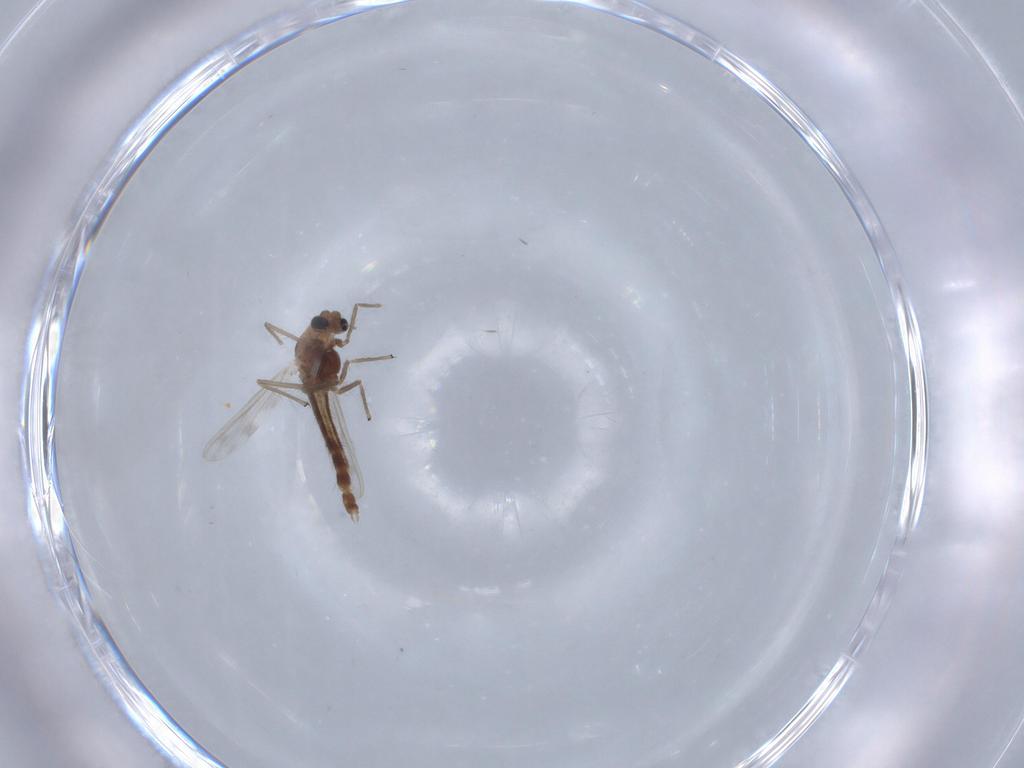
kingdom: Animalia
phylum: Arthropoda
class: Insecta
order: Diptera
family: Chironomidae
